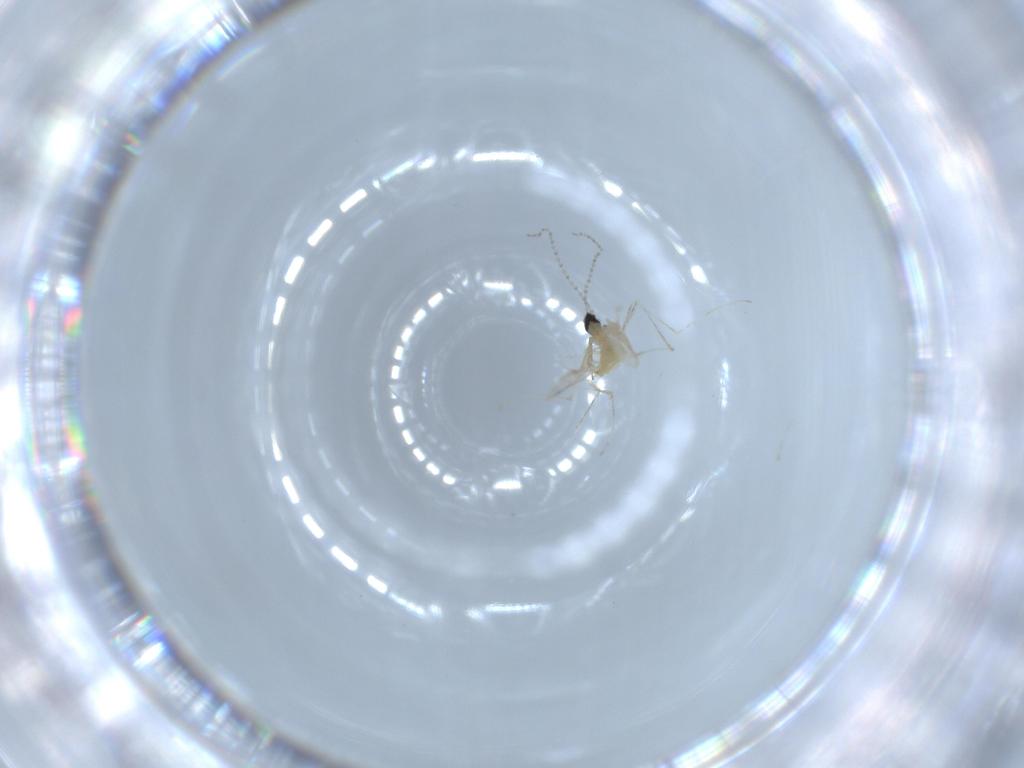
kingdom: Animalia
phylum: Arthropoda
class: Insecta
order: Diptera
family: Cecidomyiidae
